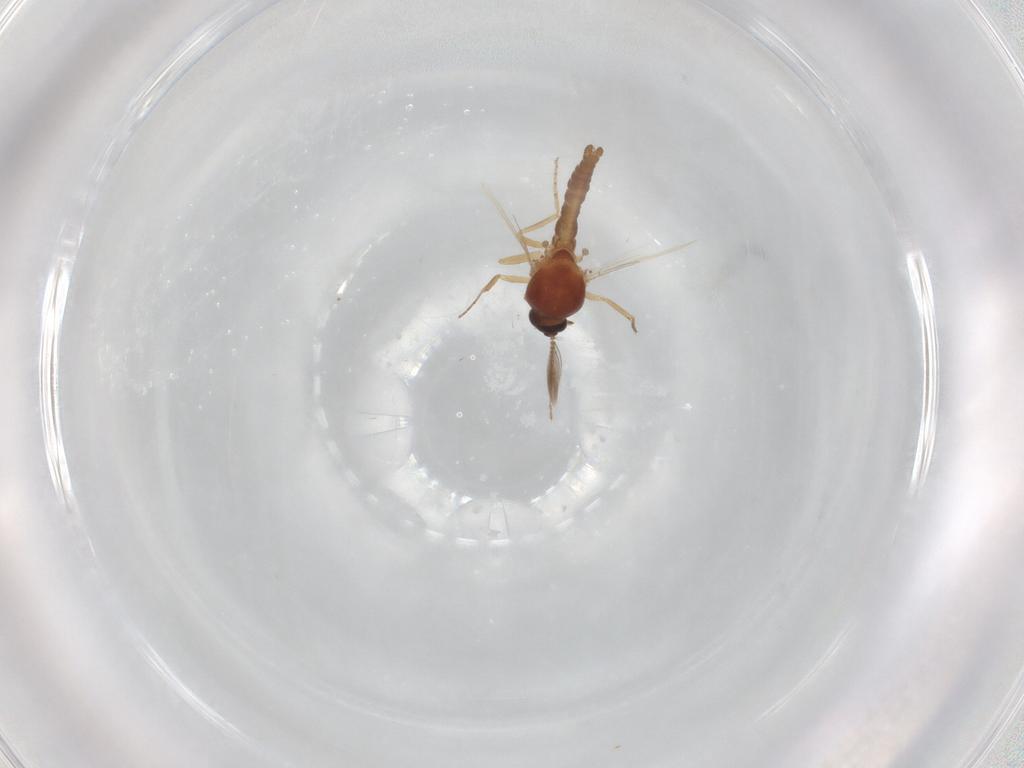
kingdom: Animalia
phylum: Arthropoda
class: Insecta
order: Diptera
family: Ceratopogonidae
